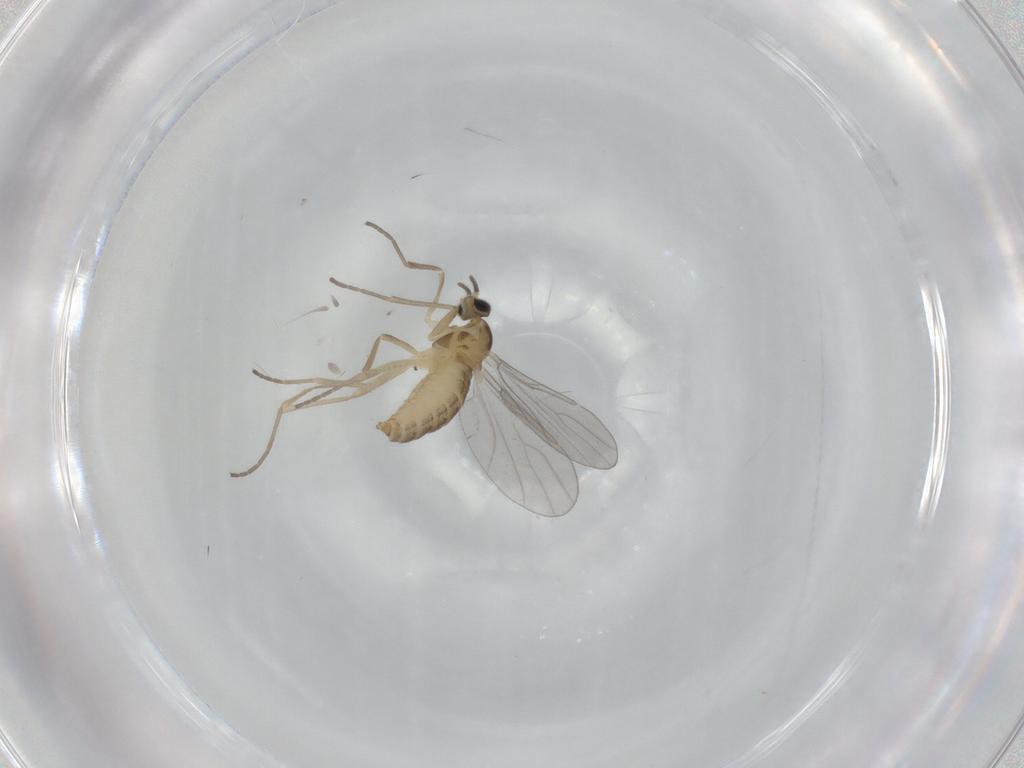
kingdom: Animalia
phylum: Arthropoda
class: Insecta
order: Diptera
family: Cecidomyiidae
